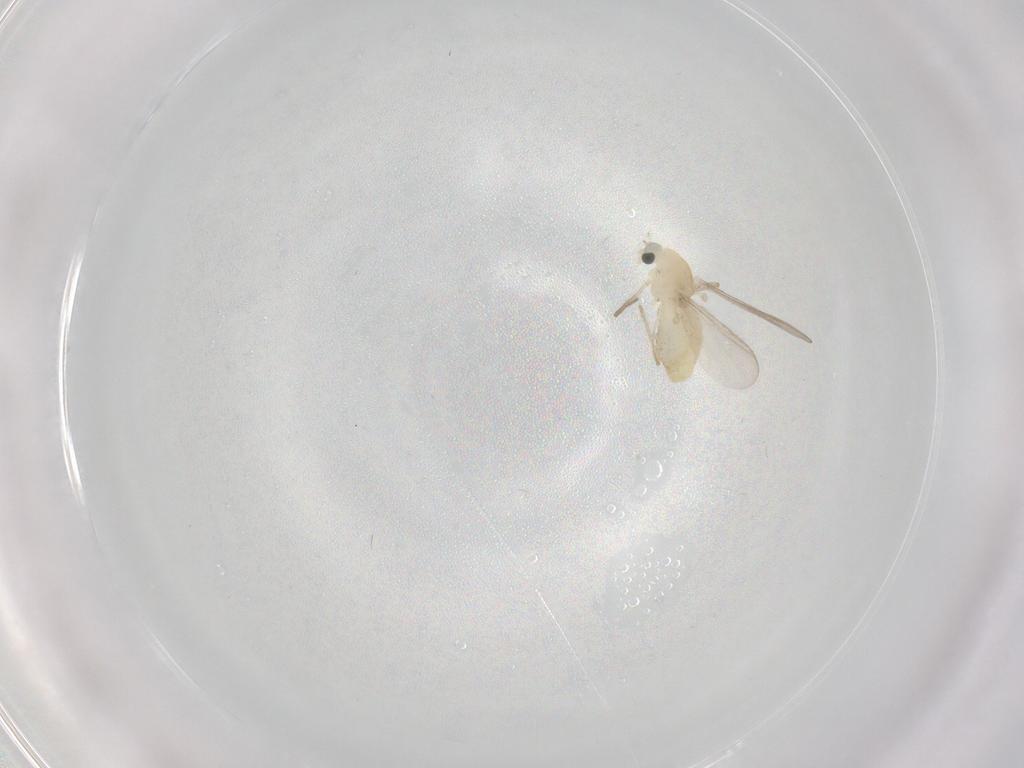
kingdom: Animalia
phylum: Arthropoda
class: Insecta
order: Diptera
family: Chironomidae
